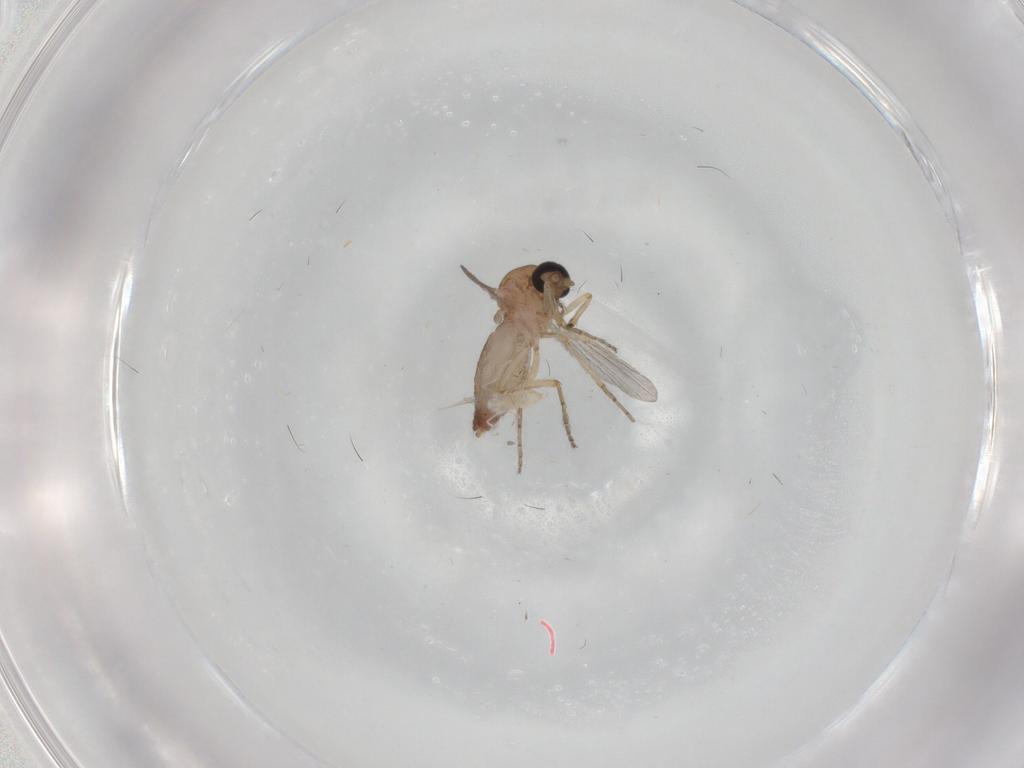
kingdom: Animalia
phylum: Arthropoda
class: Insecta
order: Diptera
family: Ceratopogonidae
